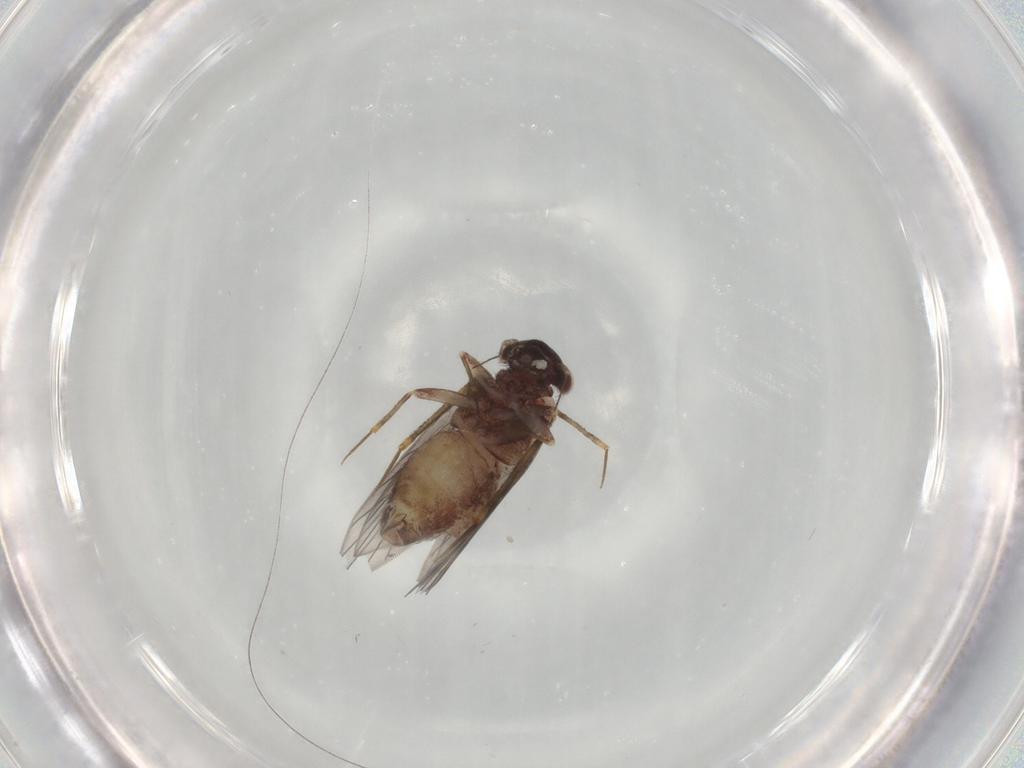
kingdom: Animalia
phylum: Arthropoda
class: Insecta
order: Psocodea
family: Lepidopsocidae
